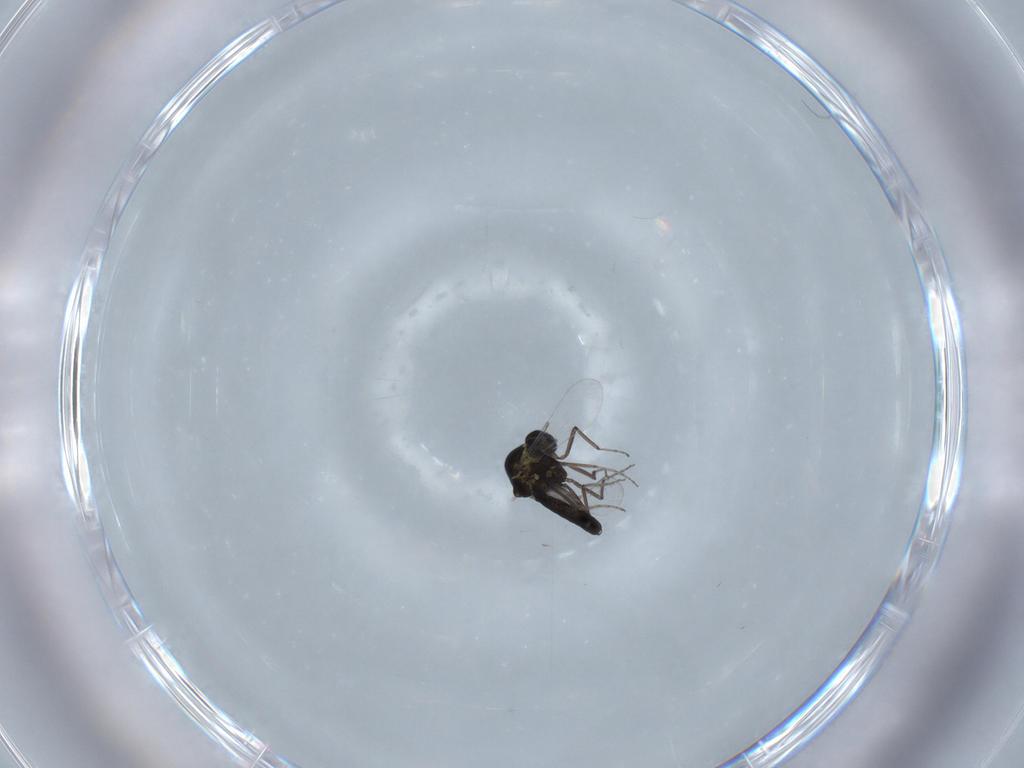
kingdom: Animalia
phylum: Arthropoda
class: Insecta
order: Diptera
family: Ceratopogonidae
